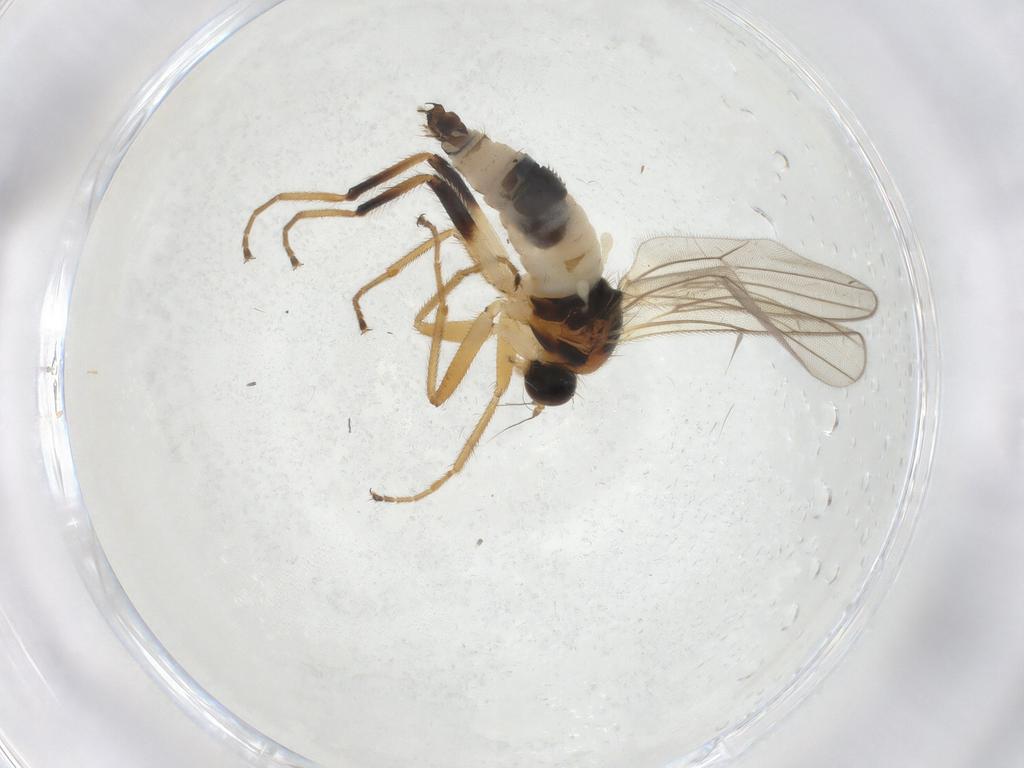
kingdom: Animalia
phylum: Arthropoda
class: Insecta
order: Diptera
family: Hybotidae
